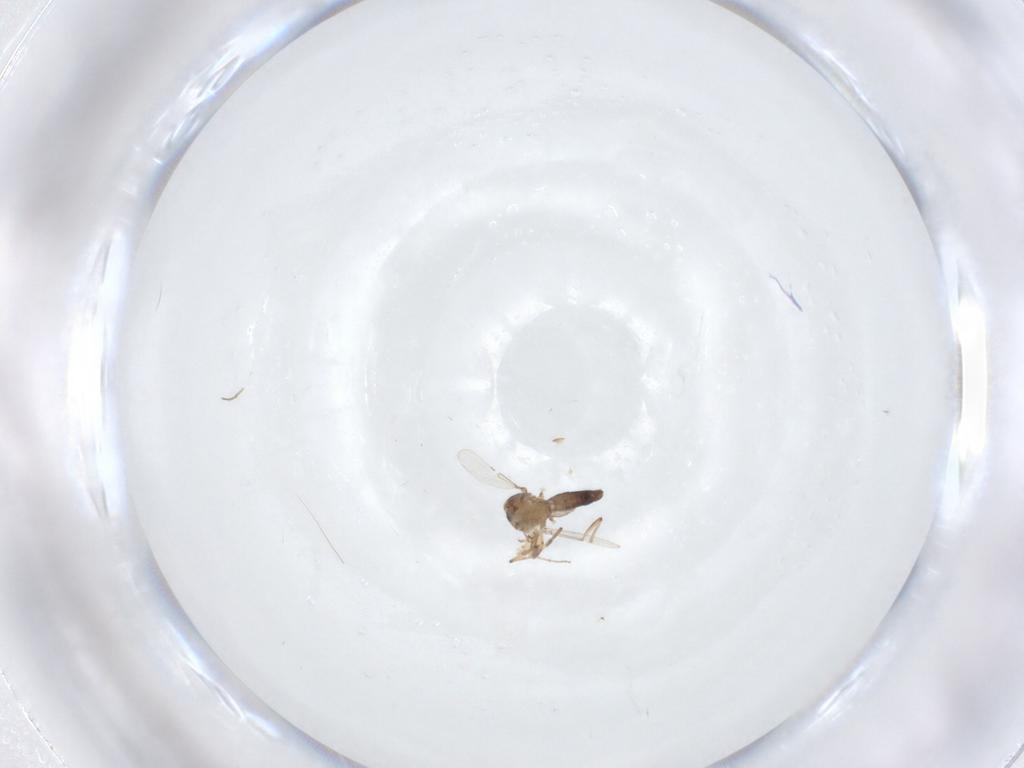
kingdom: Animalia
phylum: Arthropoda
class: Insecta
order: Diptera
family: Ceratopogonidae
